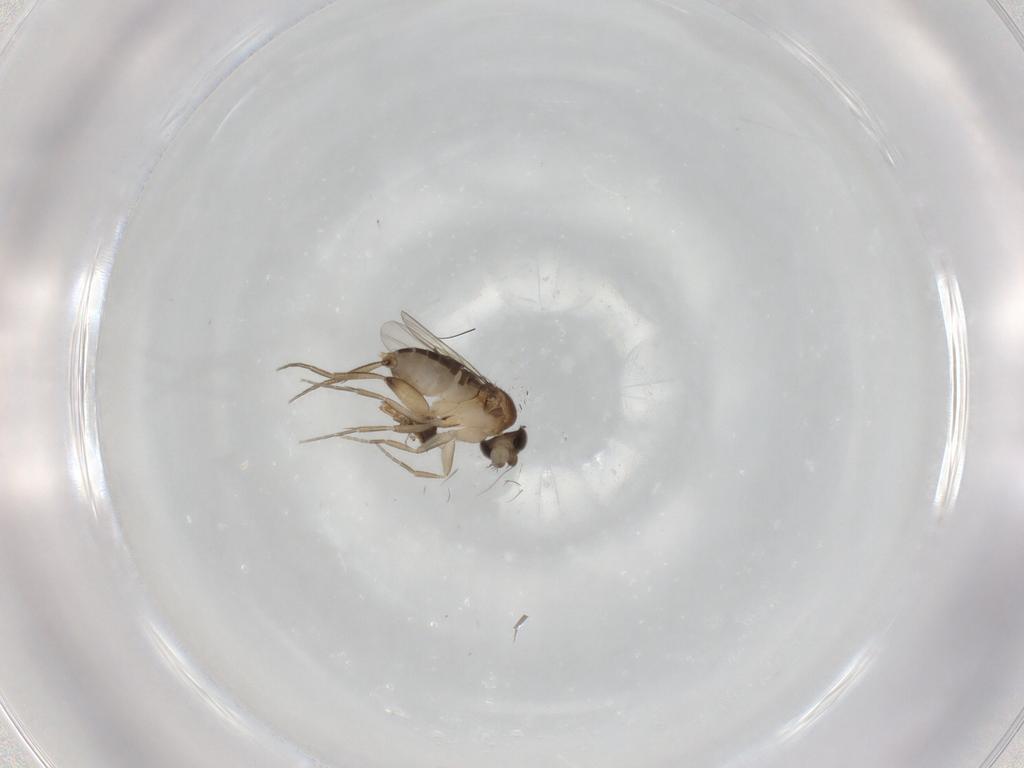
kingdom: Animalia
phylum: Arthropoda
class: Insecta
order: Diptera
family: Phoridae
